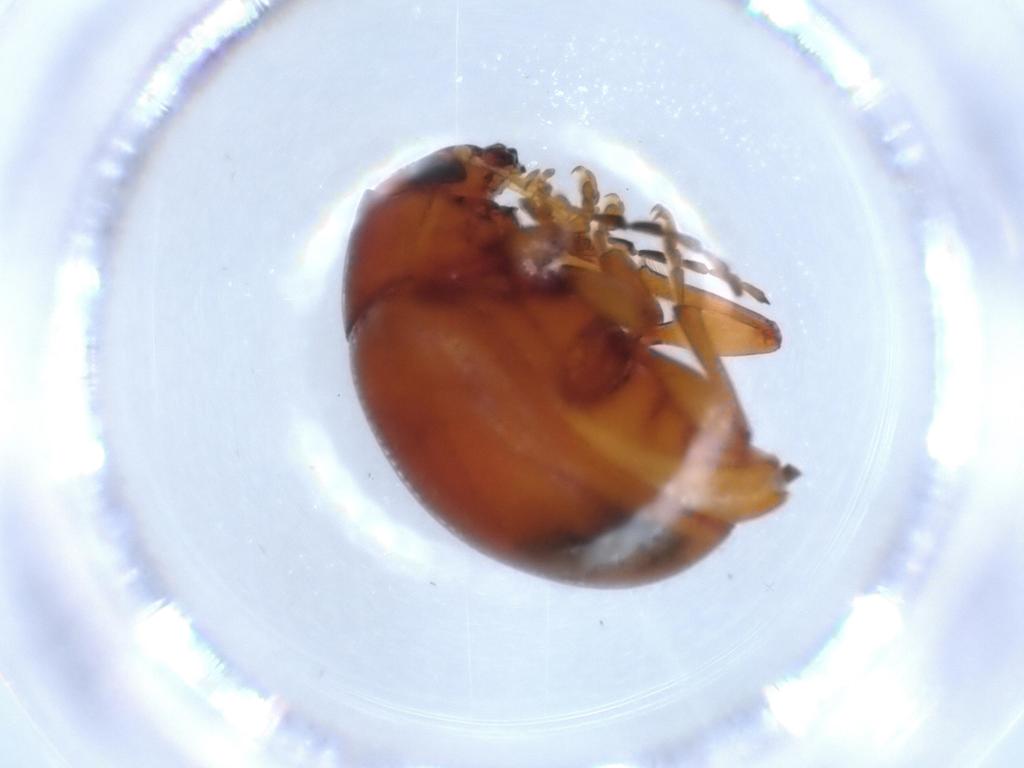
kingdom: Animalia
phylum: Arthropoda
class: Insecta
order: Coleoptera
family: Chrysomelidae
